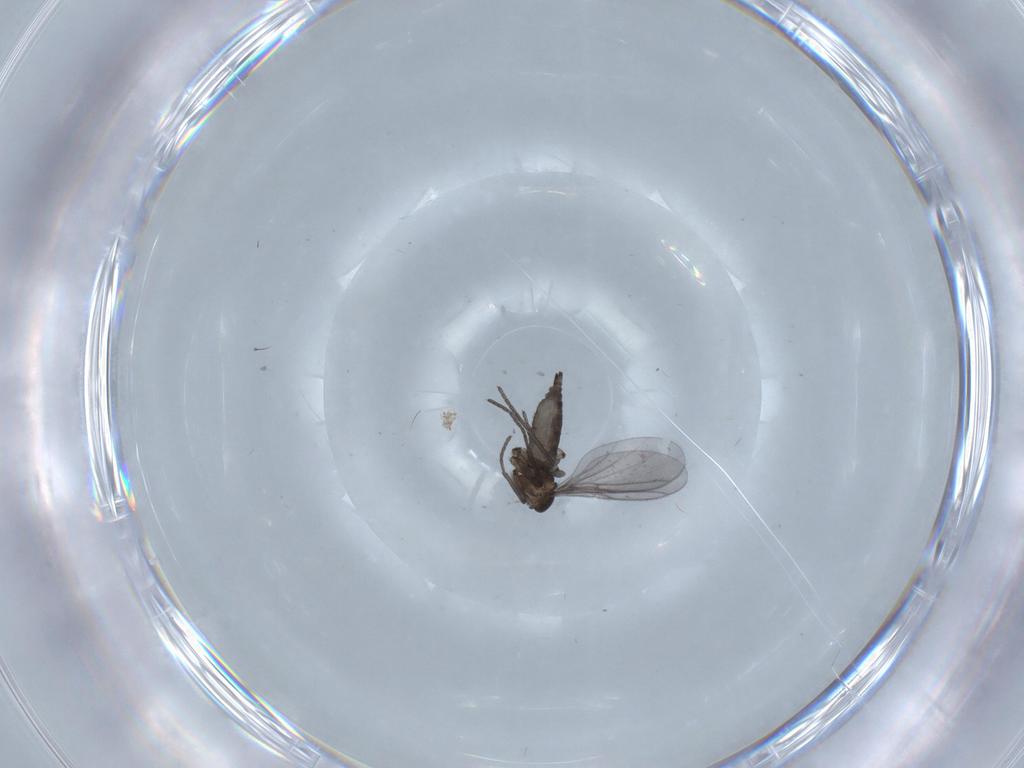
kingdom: Animalia
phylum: Arthropoda
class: Insecta
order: Diptera
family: Chironomidae
